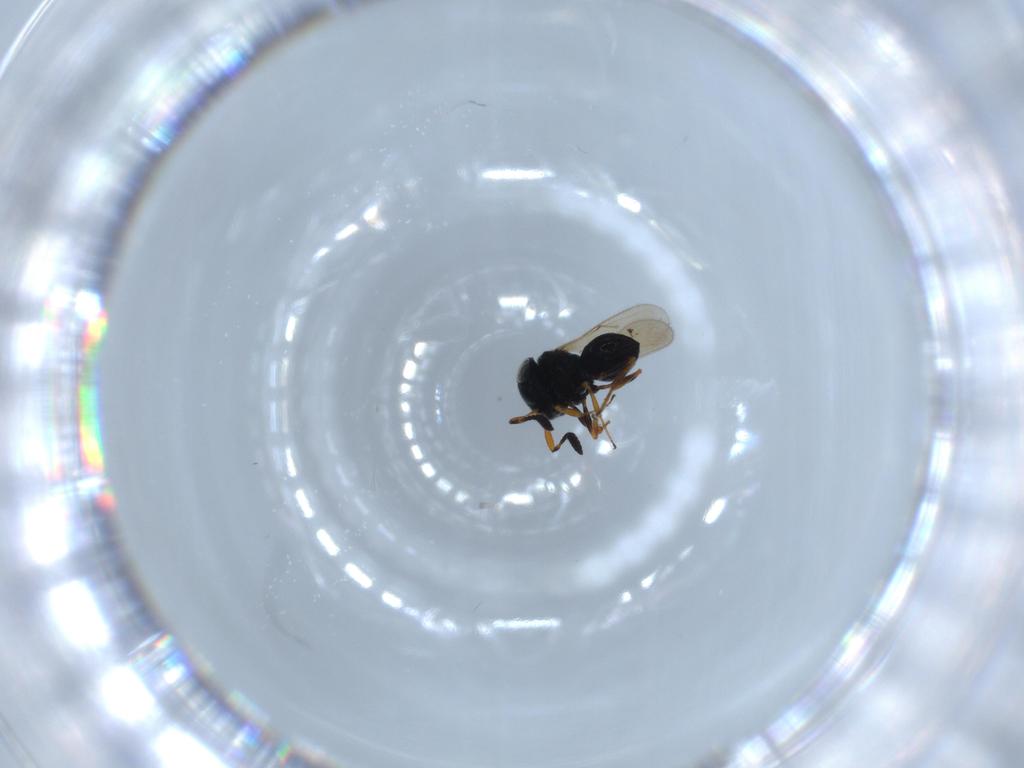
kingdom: Animalia
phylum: Arthropoda
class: Insecta
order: Hymenoptera
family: Scelionidae
